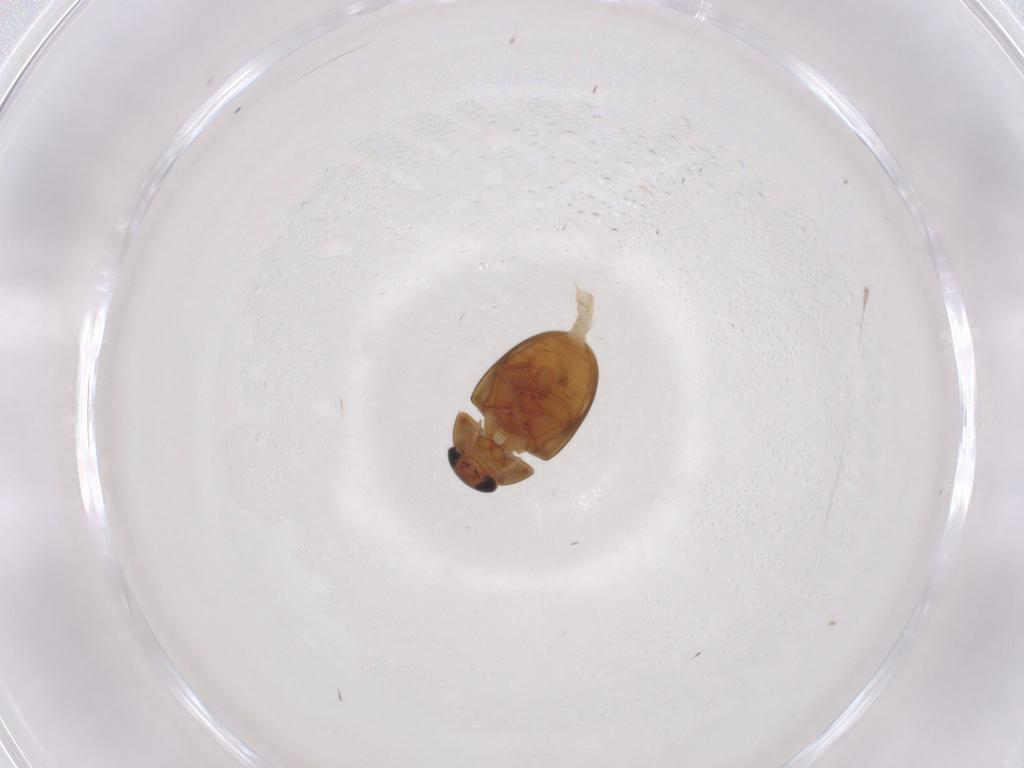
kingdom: Animalia
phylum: Arthropoda
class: Insecta
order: Coleoptera
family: Phalacridae
